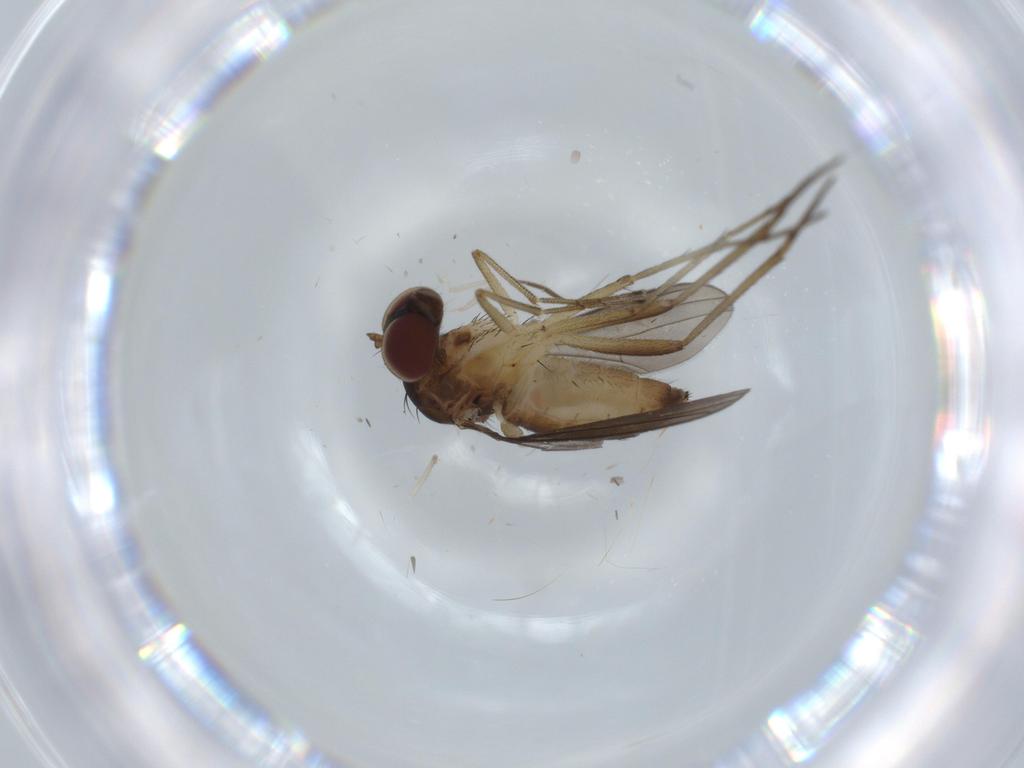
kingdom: Animalia
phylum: Arthropoda
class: Insecta
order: Diptera
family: Dolichopodidae
